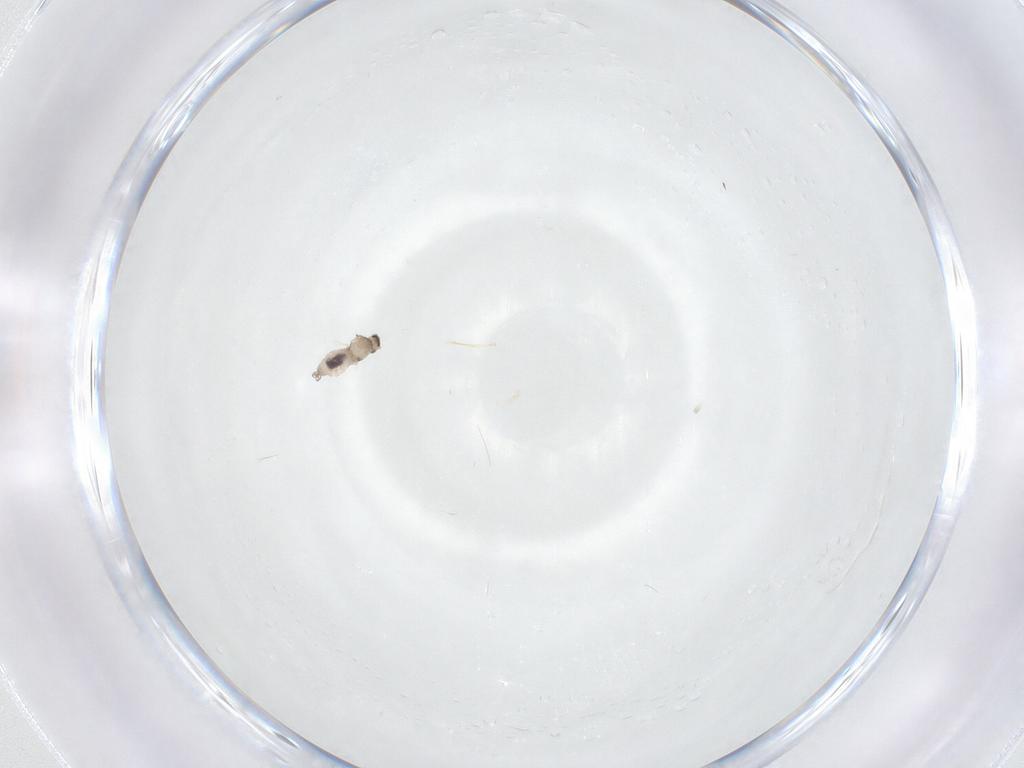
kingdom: Animalia
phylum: Arthropoda
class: Insecta
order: Diptera
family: Cecidomyiidae
